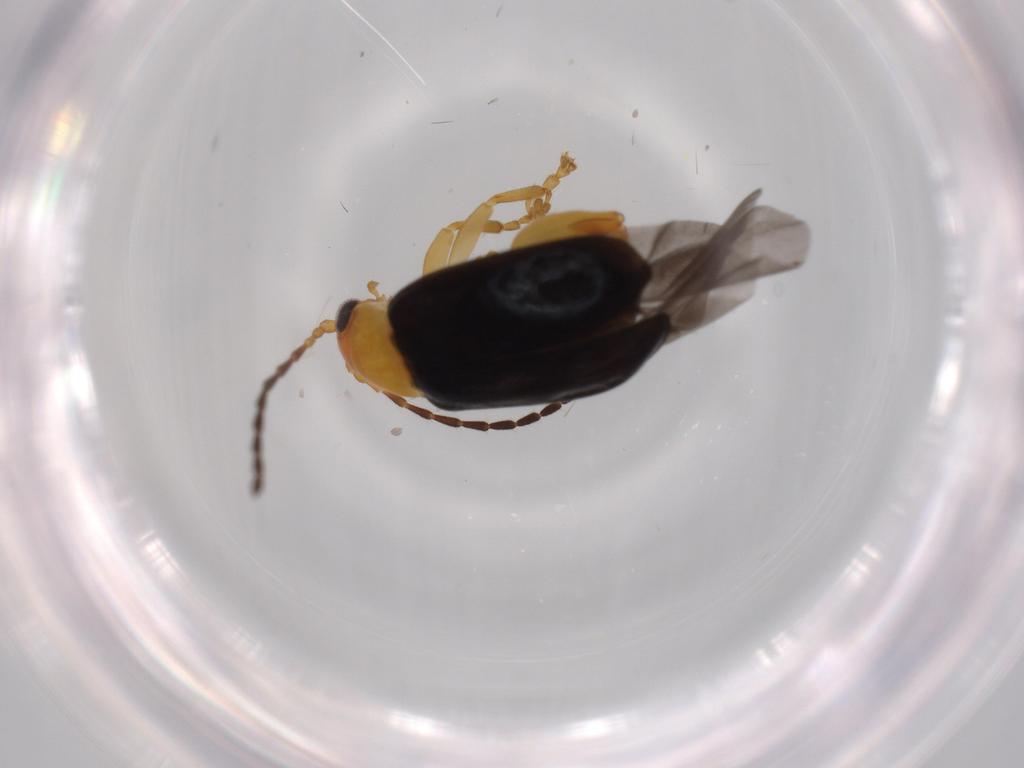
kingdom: Animalia
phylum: Arthropoda
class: Insecta
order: Coleoptera
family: Chrysomelidae
